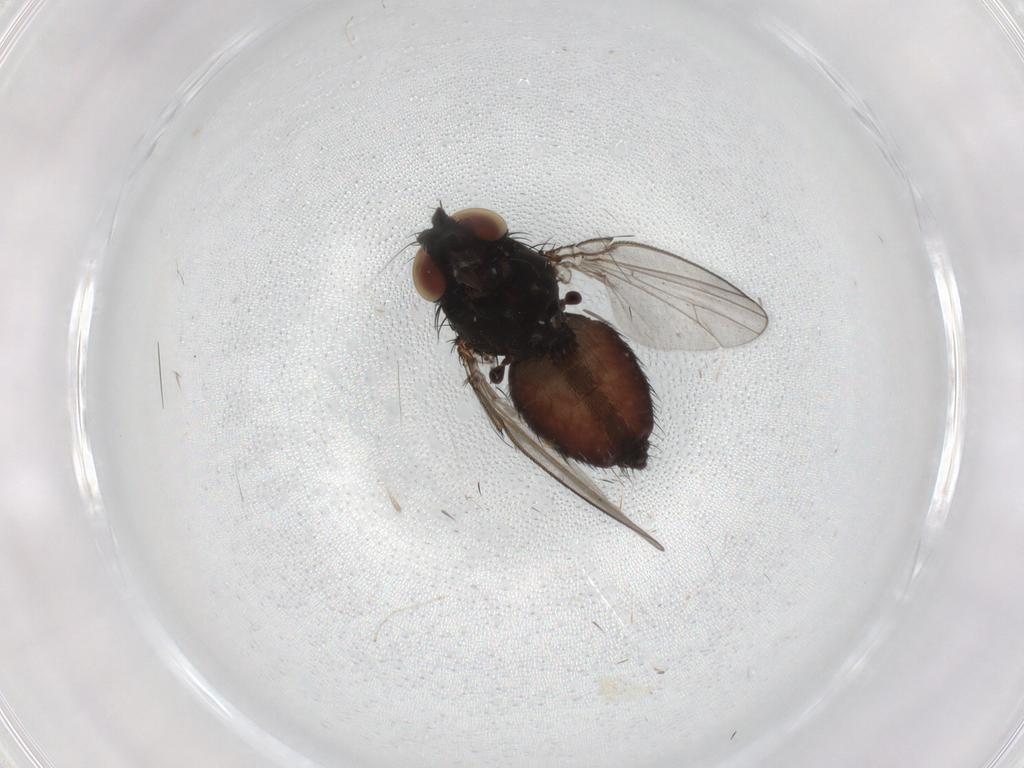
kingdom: Animalia
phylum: Arthropoda
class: Insecta
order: Diptera
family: Milichiidae
